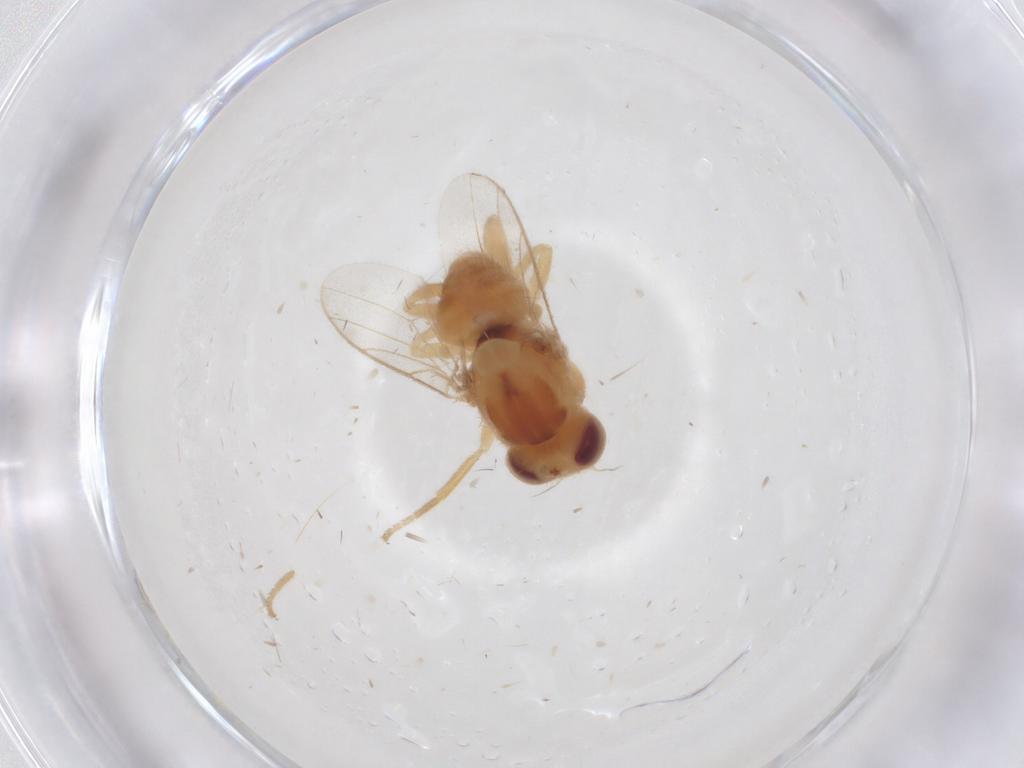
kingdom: Animalia
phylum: Arthropoda
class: Insecta
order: Diptera
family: Chloropidae
